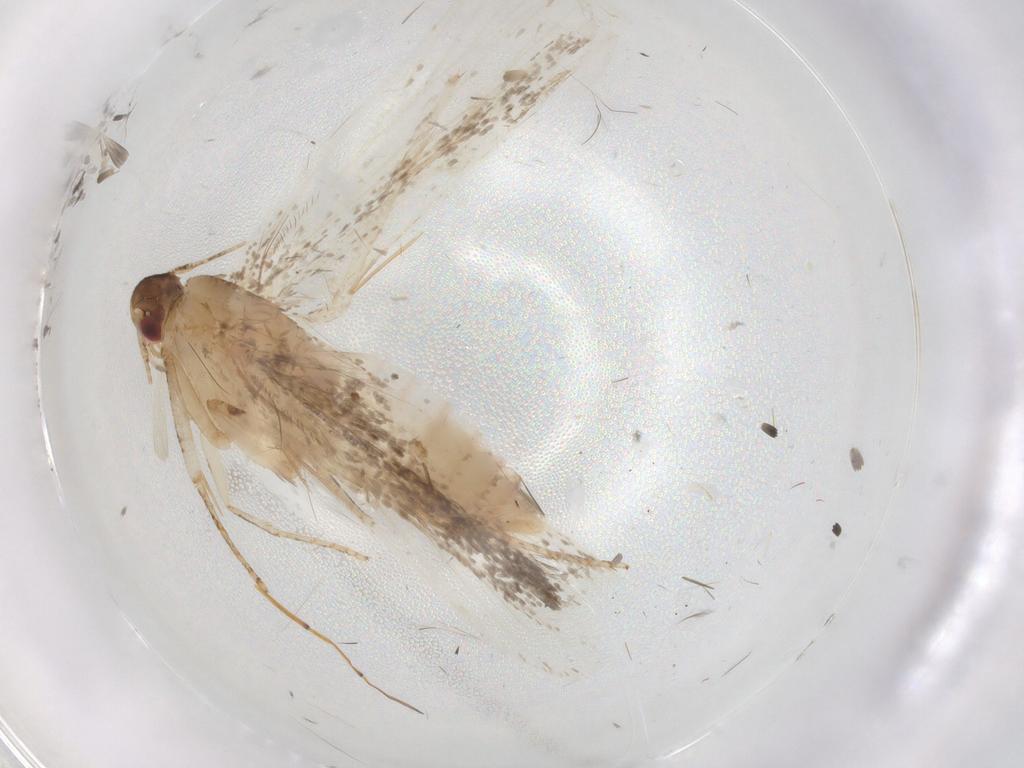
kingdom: Animalia
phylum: Arthropoda
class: Insecta
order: Lepidoptera
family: Gelechiidae
